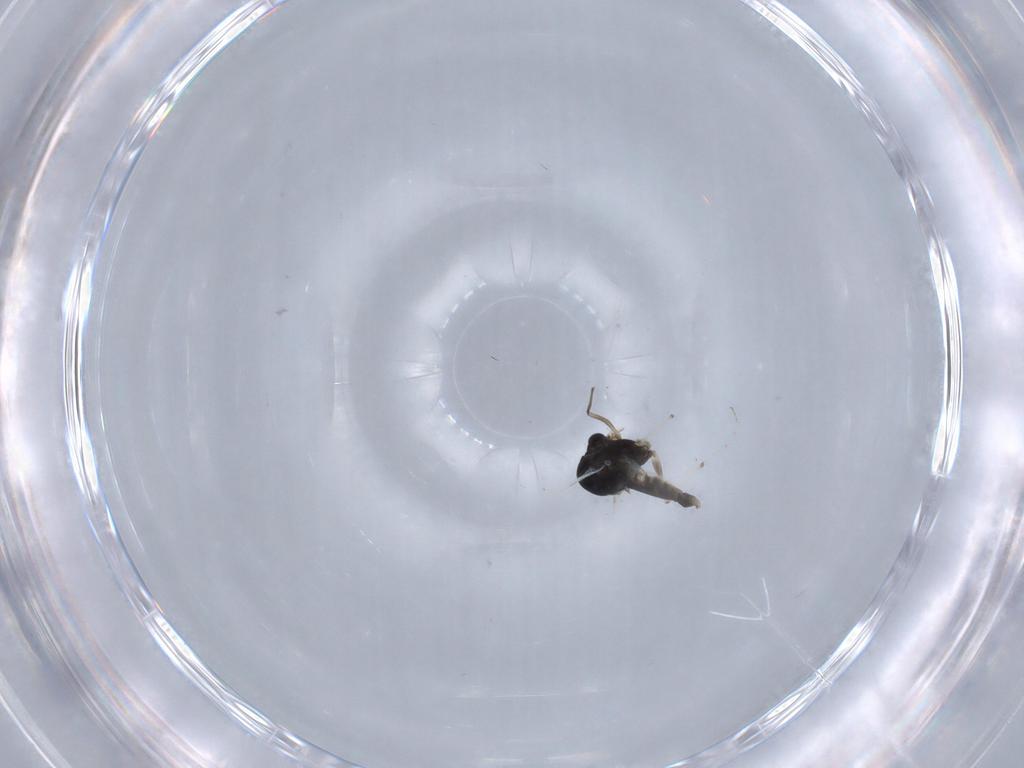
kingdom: Animalia
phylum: Arthropoda
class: Insecta
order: Diptera
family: Chironomidae
